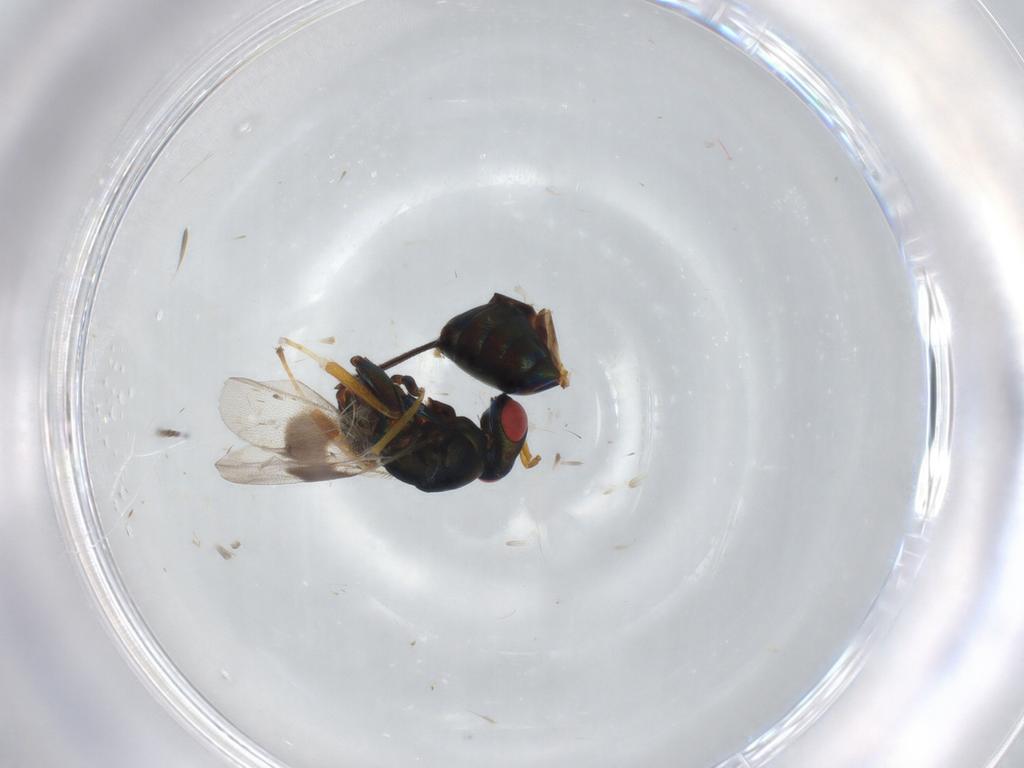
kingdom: Animalia
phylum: Arthropoda
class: Insecta
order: Hymenoptera
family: Torymidae
